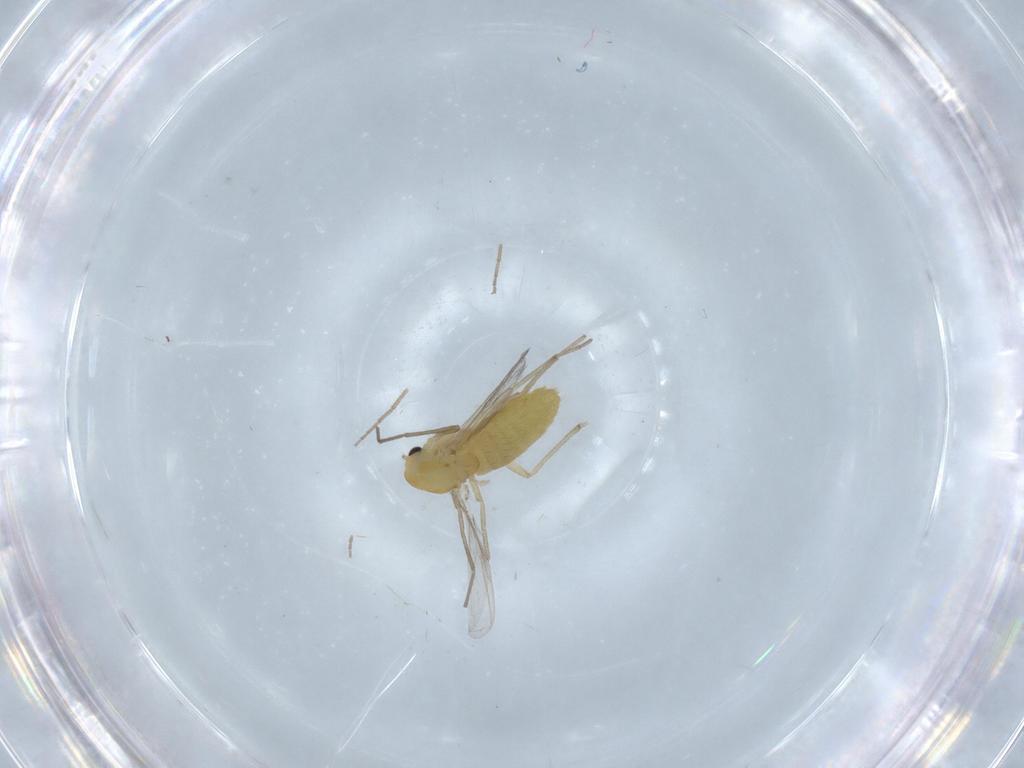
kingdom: Animalia
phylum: Arthropoda
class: Insecta
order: Diptera
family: Chironomidae
